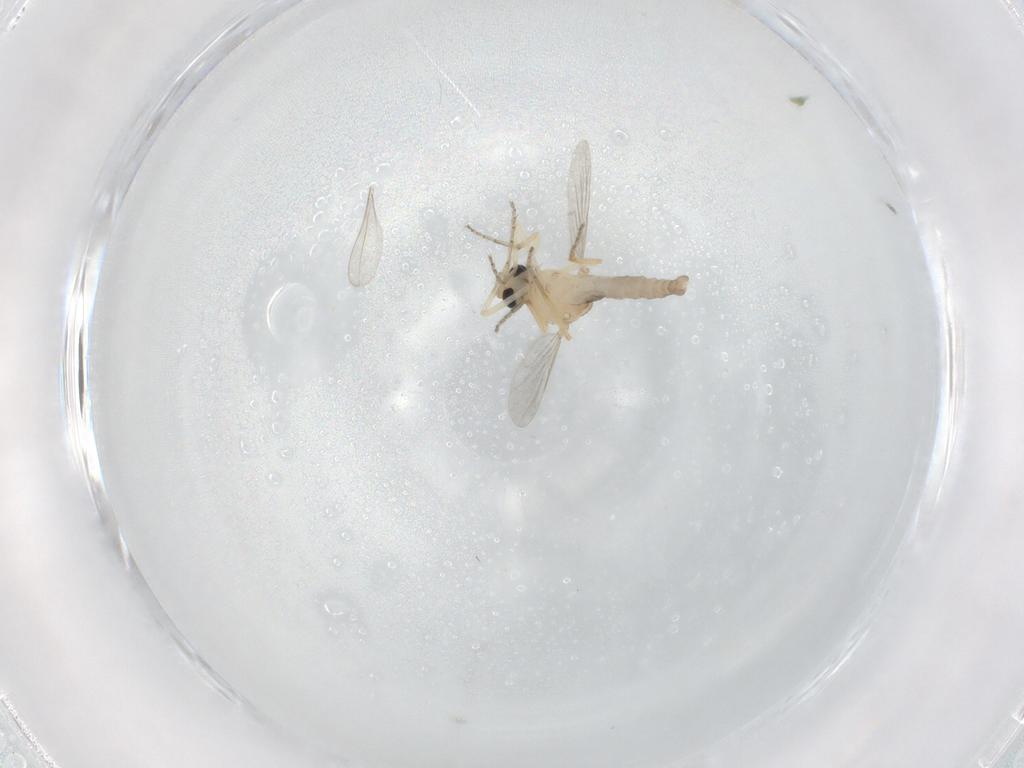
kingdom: Animalia
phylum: Arthropoda
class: Insecta
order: Diptera
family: Ceratopogonidae
